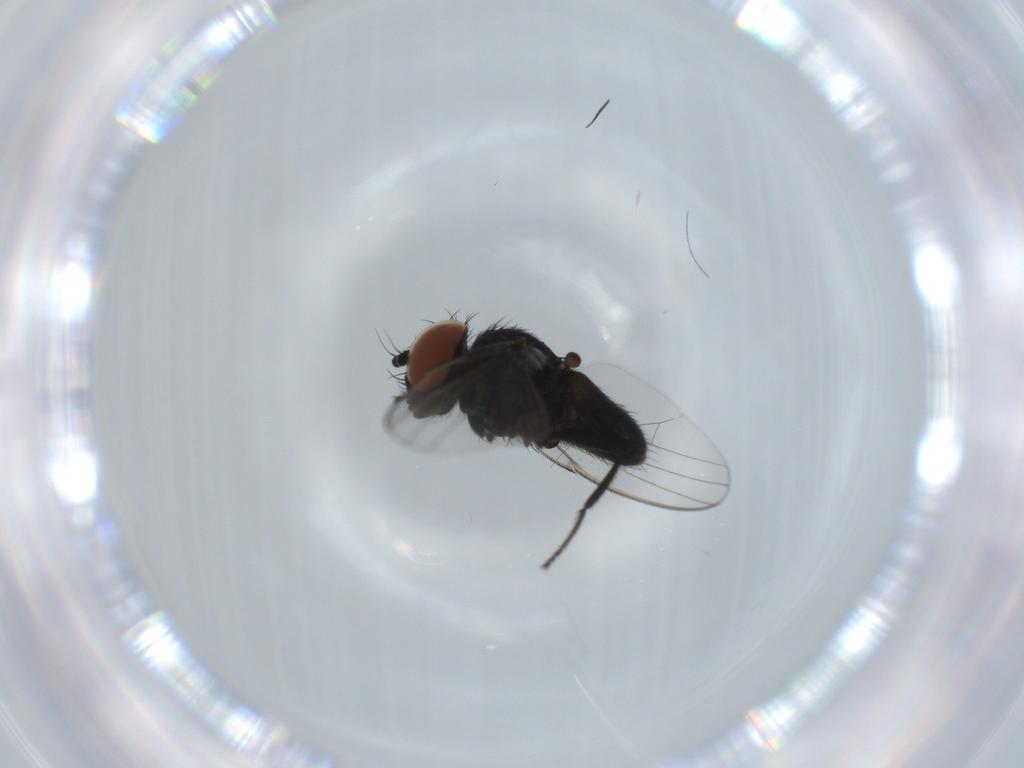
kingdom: Animalia
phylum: Arthropoda
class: Insecta
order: Diptera
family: Milichiidae
